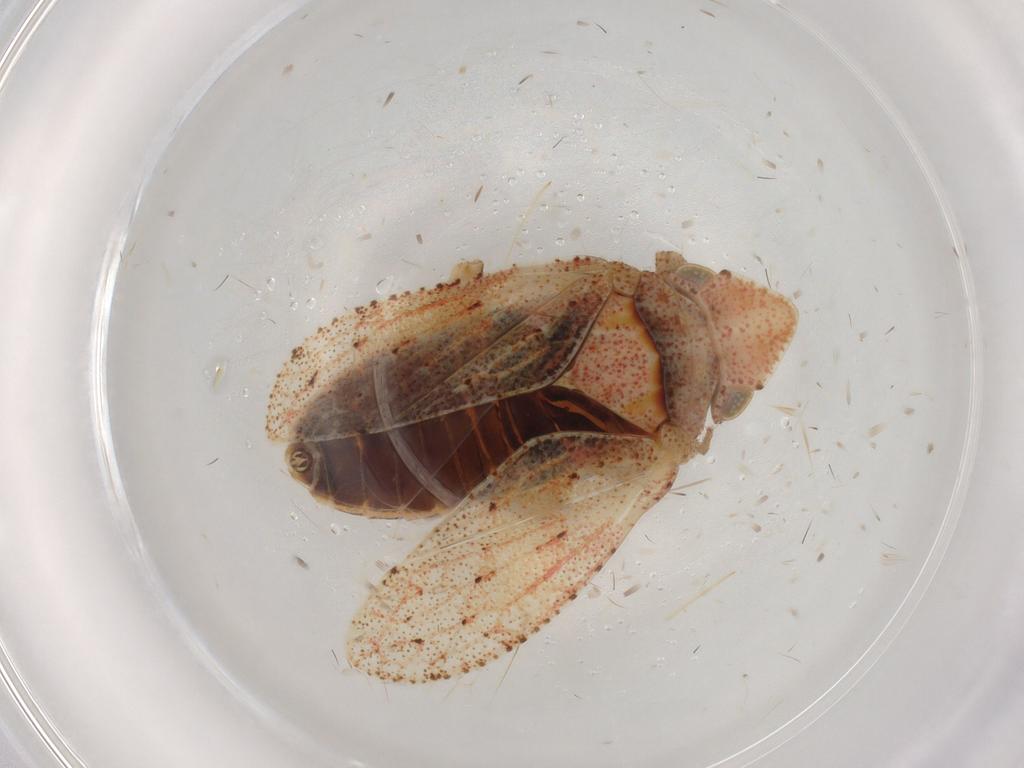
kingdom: Animalia
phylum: Arthropoda
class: Insecta
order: Hemiptera
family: Tettigometridae
